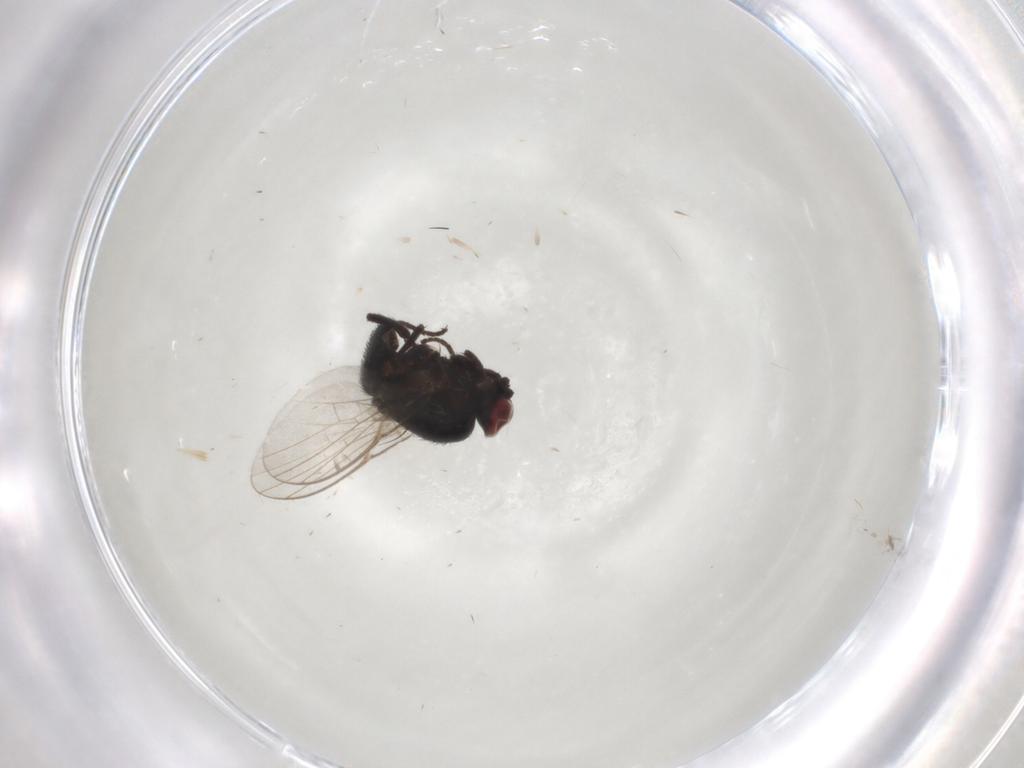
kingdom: Animalia
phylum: Arthropoda
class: Insecta
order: Diptera
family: Agromyzidae
